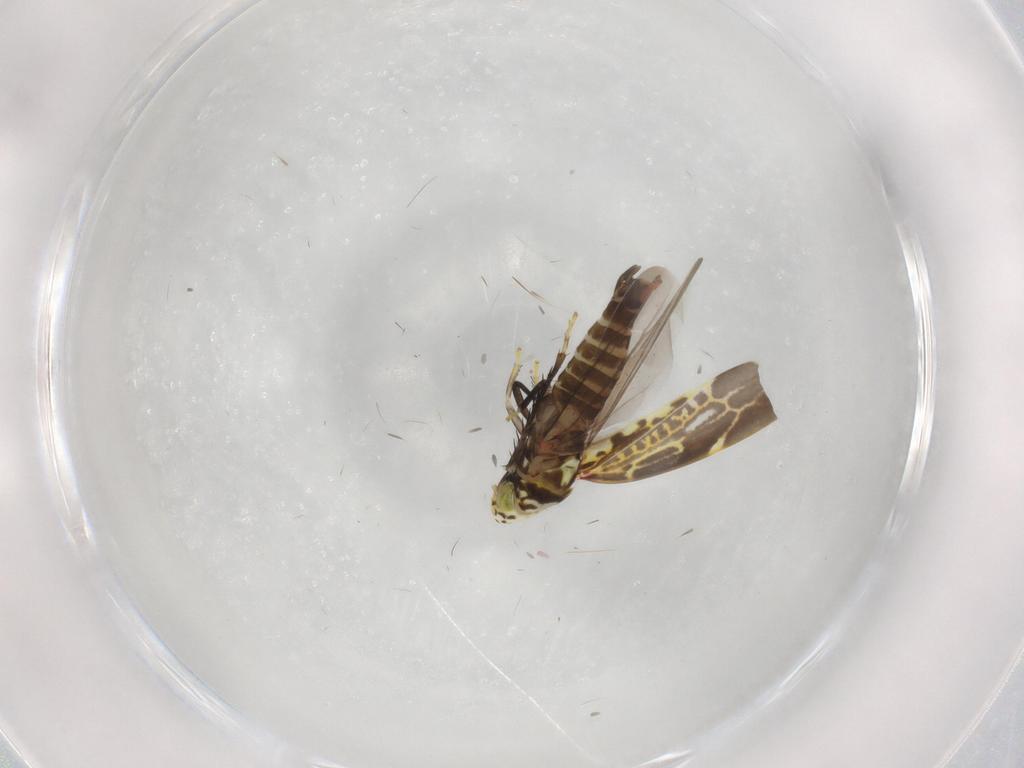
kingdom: Animalia
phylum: Arthropoda
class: Insecta
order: Hemiptera
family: Cicadellidae
